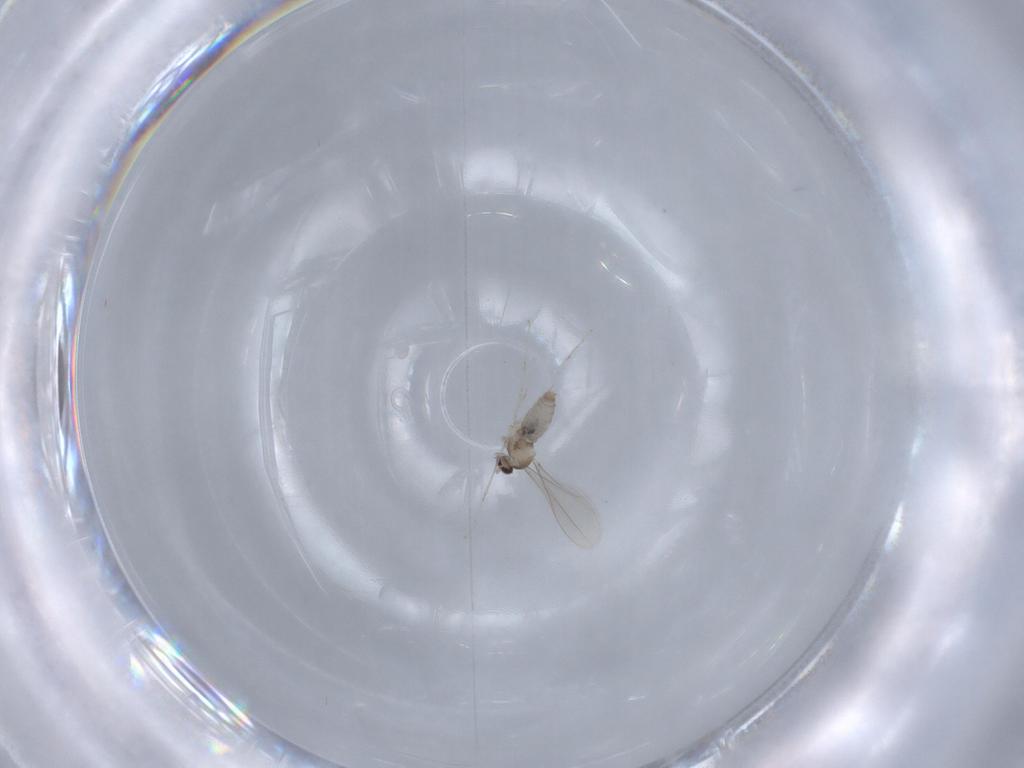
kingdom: Animalia
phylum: Arthropoda
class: Insecta
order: Diptera
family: Cecidomyiidae
